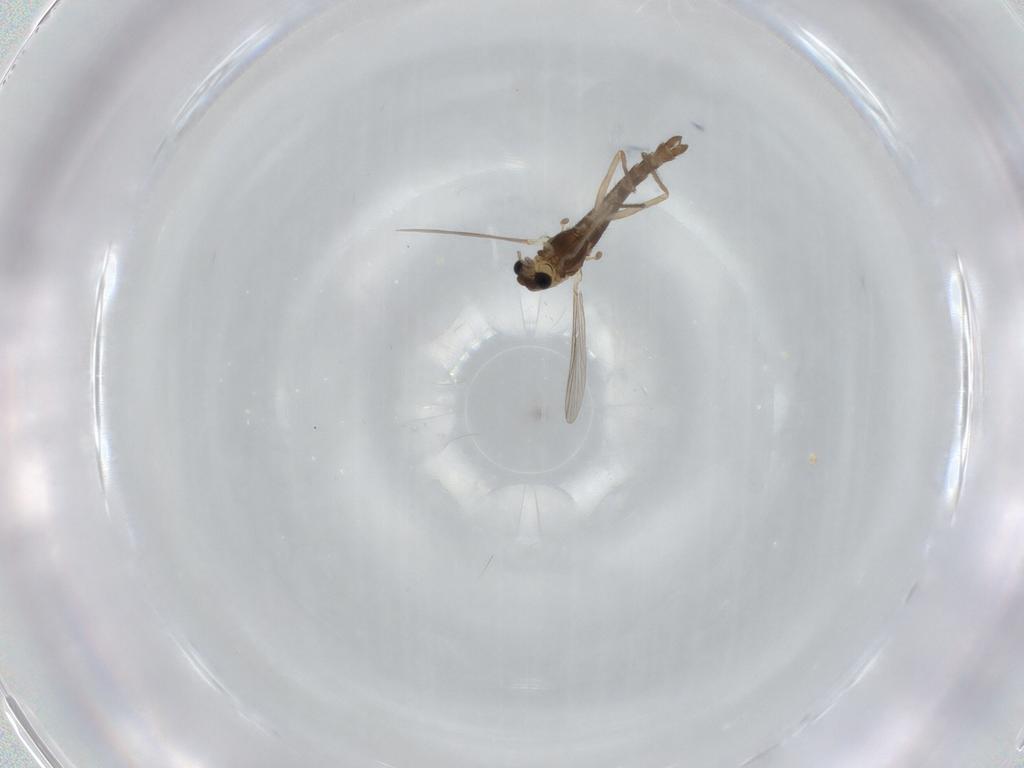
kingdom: Animalia
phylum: Arthropoda
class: Insecta
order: Diptera
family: Chironomidae
